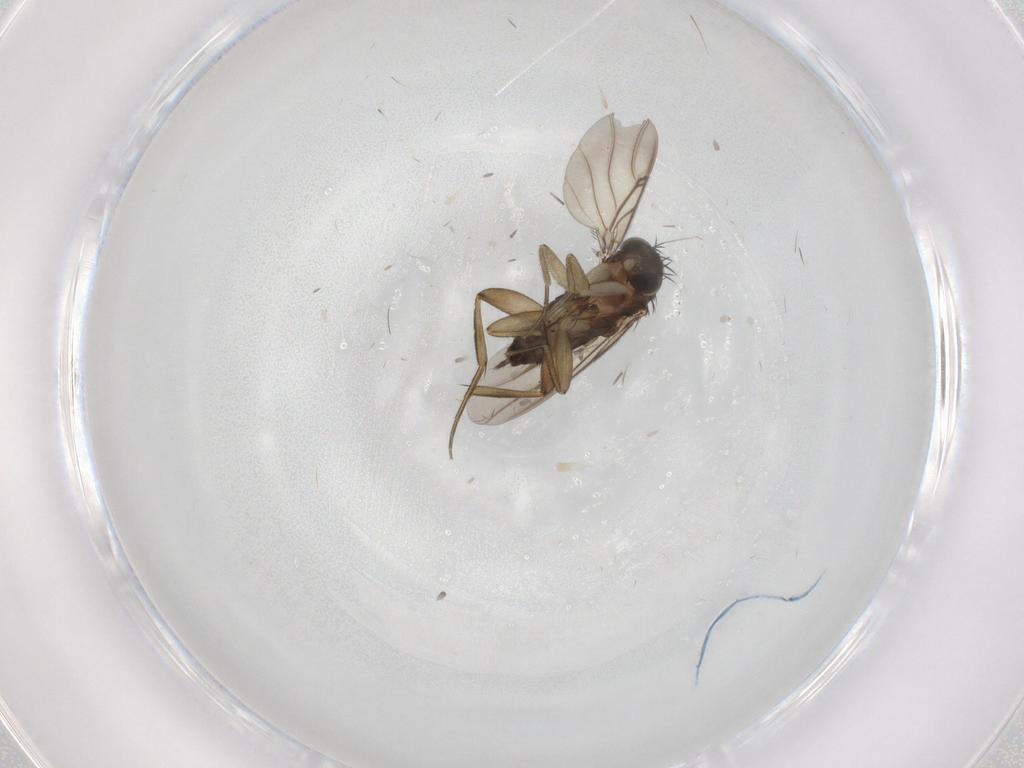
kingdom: Animalia
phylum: Arthropoda
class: Insecta
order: Diptera
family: Phoridae
